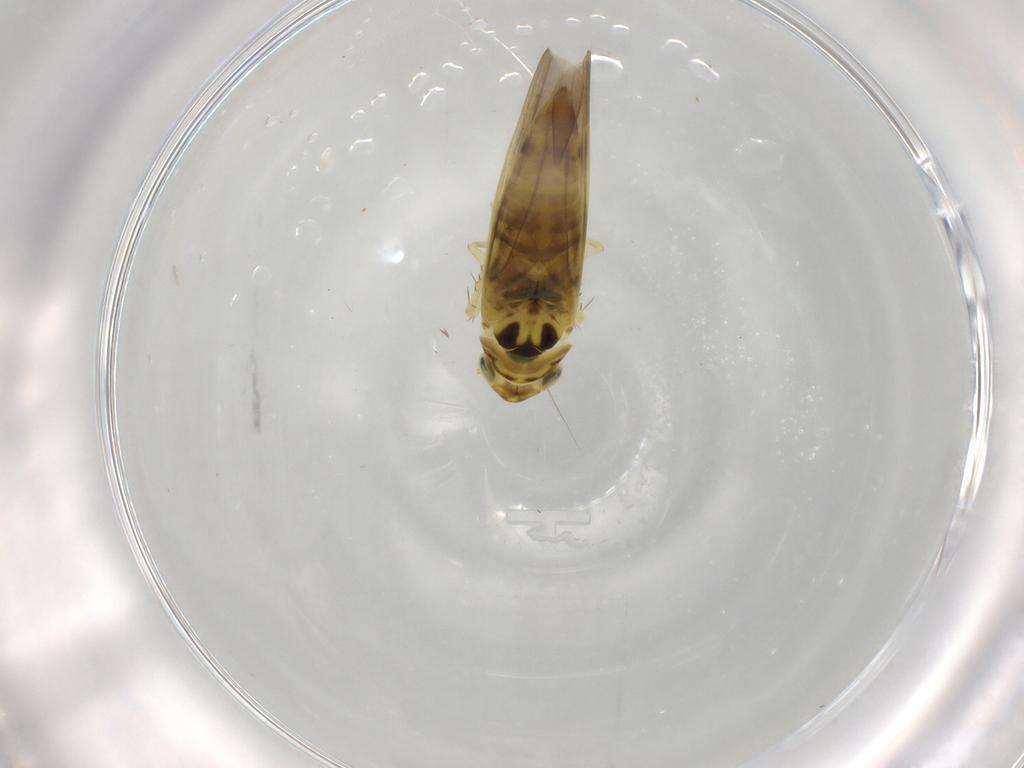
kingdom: Animalia
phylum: Arthropoda
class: Insecta
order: Hemiptera
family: Cicadellidae
